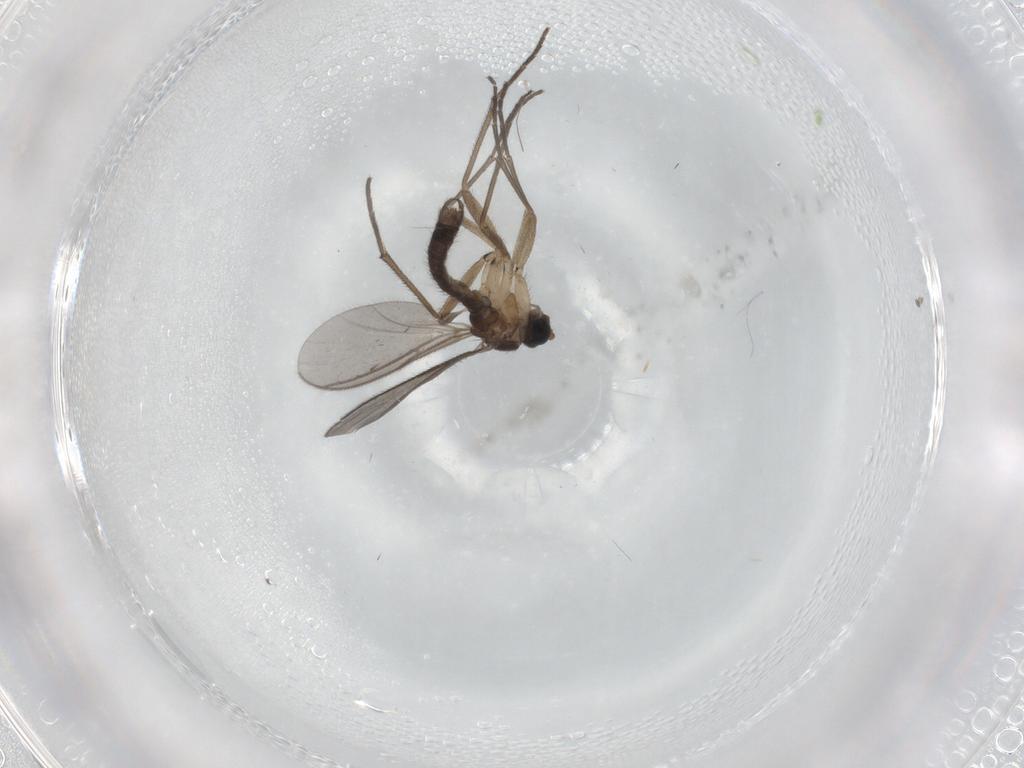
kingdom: Animalia
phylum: Arthropoda
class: Insecta
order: Diptera
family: Sciaridae
